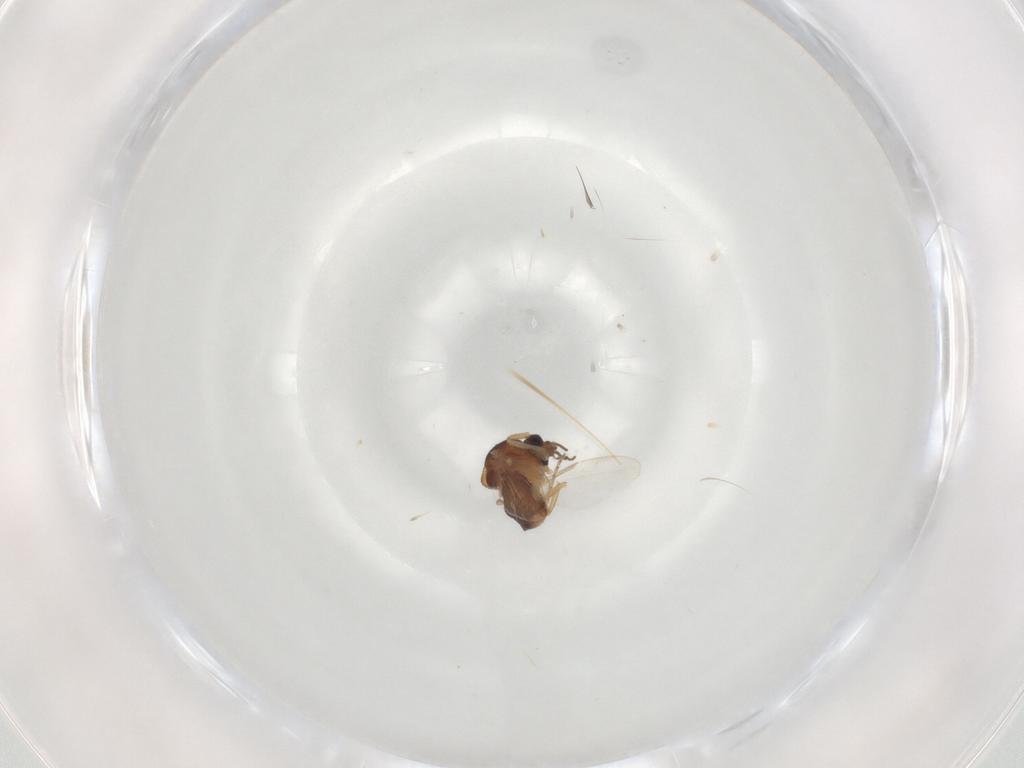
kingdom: Animalia
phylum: Arthropoda
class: Insecta
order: Diptera
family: Ceratopogonidae
